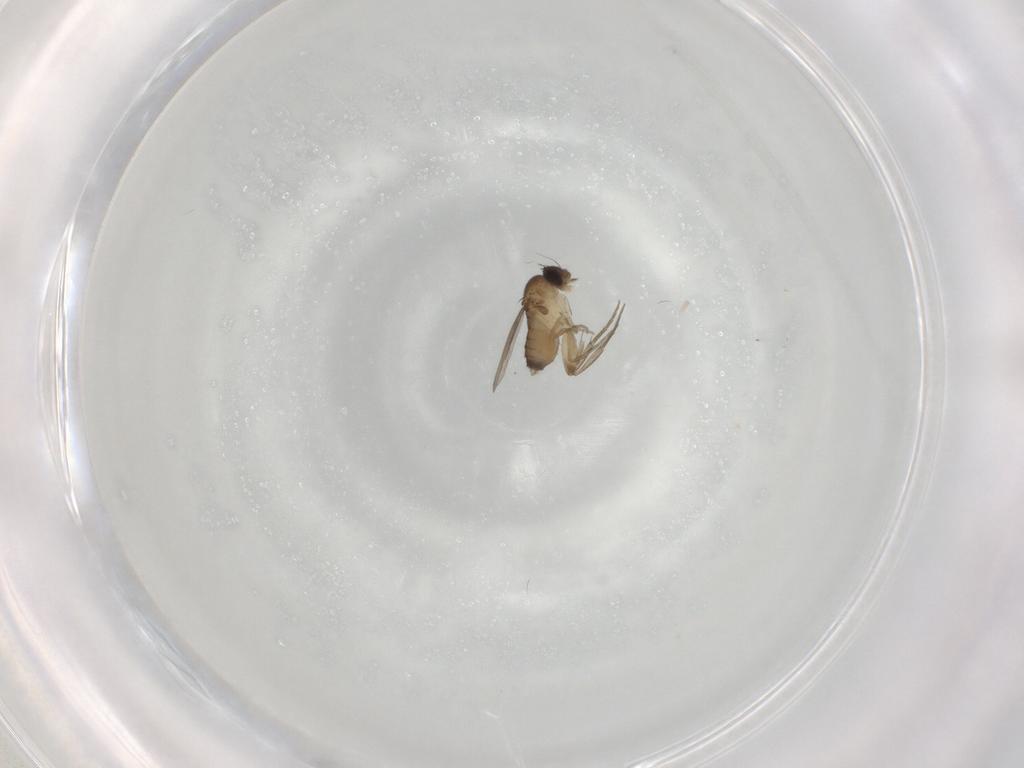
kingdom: Animalia
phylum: Arthropoda
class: Insecta
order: Diptera
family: Phoridae
